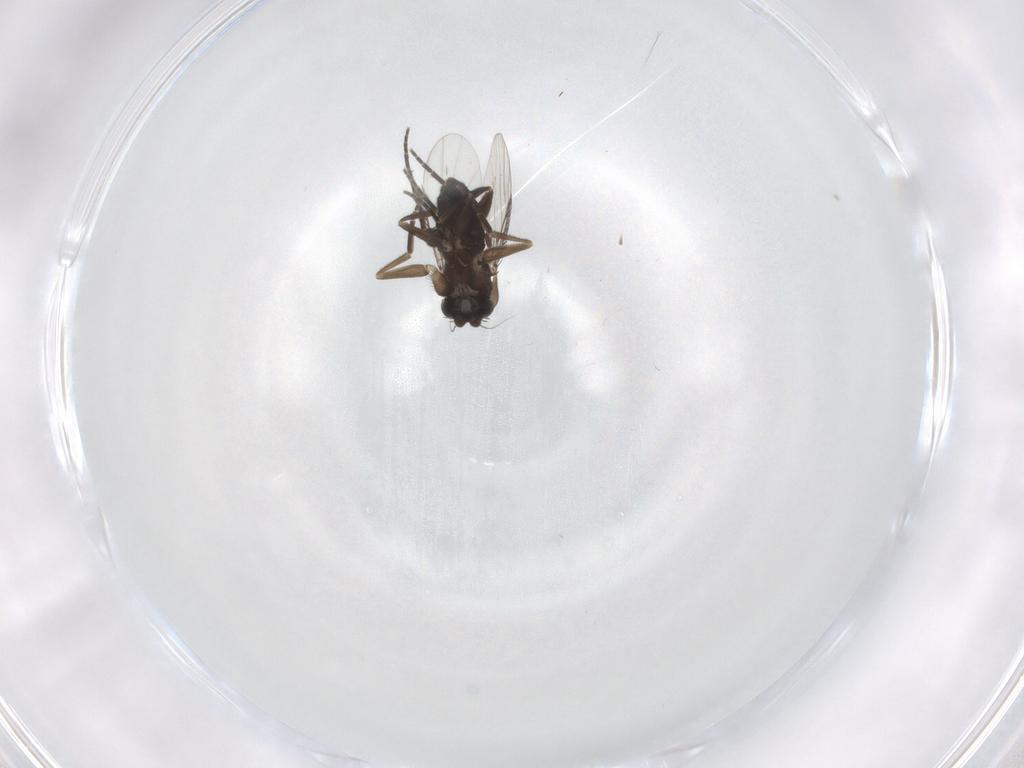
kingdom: Animalia
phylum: Arthropoda
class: Insecta
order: Diptera
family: Phoridae
